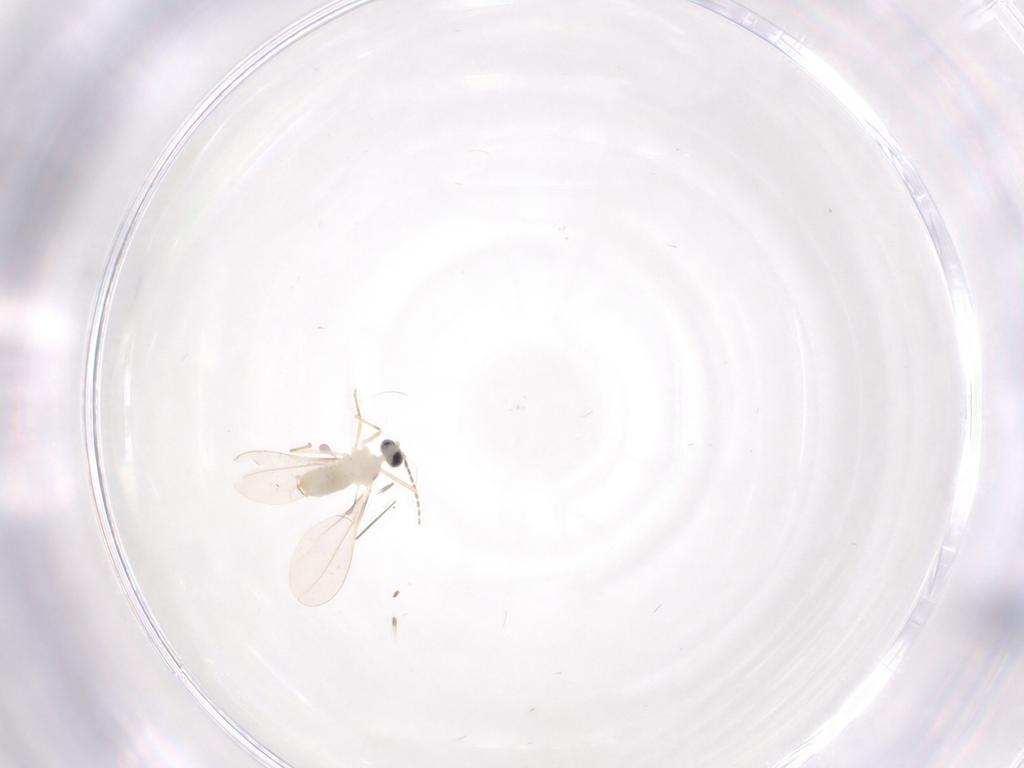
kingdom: Animalia
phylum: Arthropoda
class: Insecta
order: Diptera
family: Cecidomyiidae
